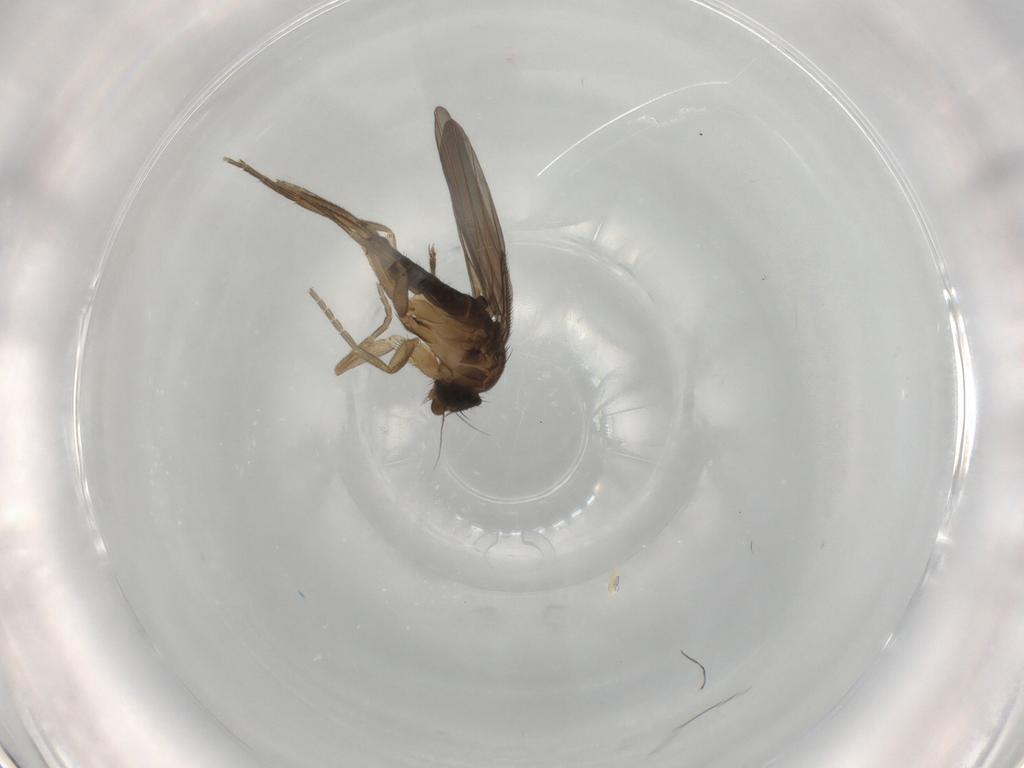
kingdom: Animalia
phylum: Arthropoda
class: Insecta
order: Diptera
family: Phoridae
